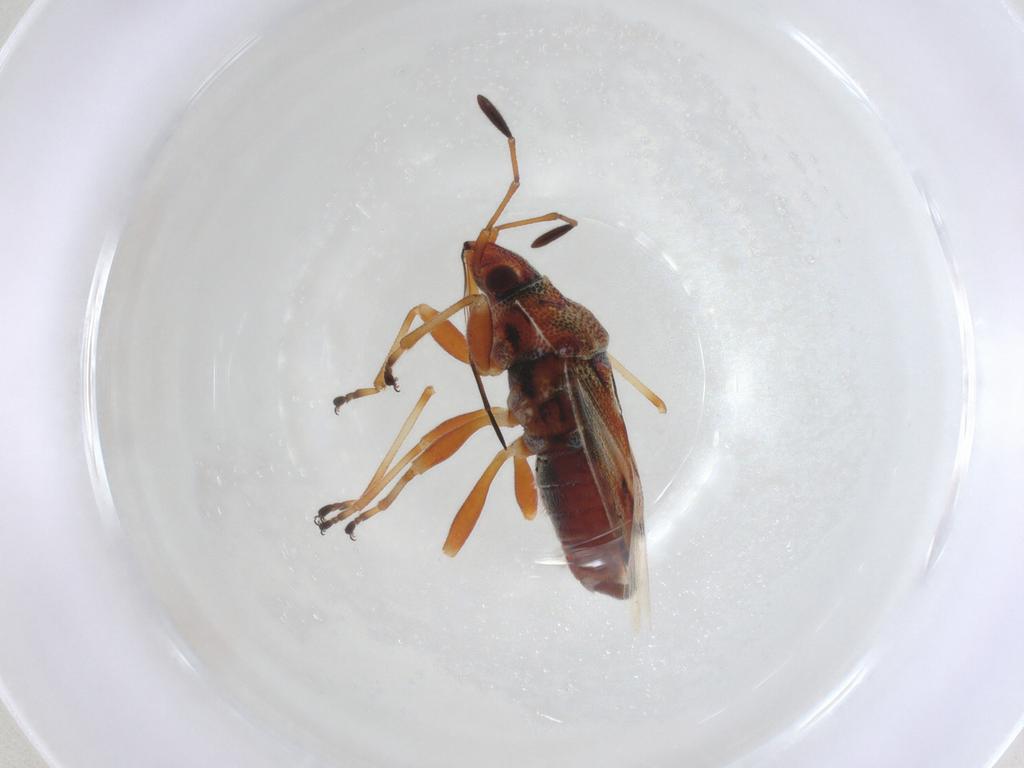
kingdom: Animalia
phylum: Arthropoda
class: Insecta
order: Hemiptera
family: Lygaeidae
